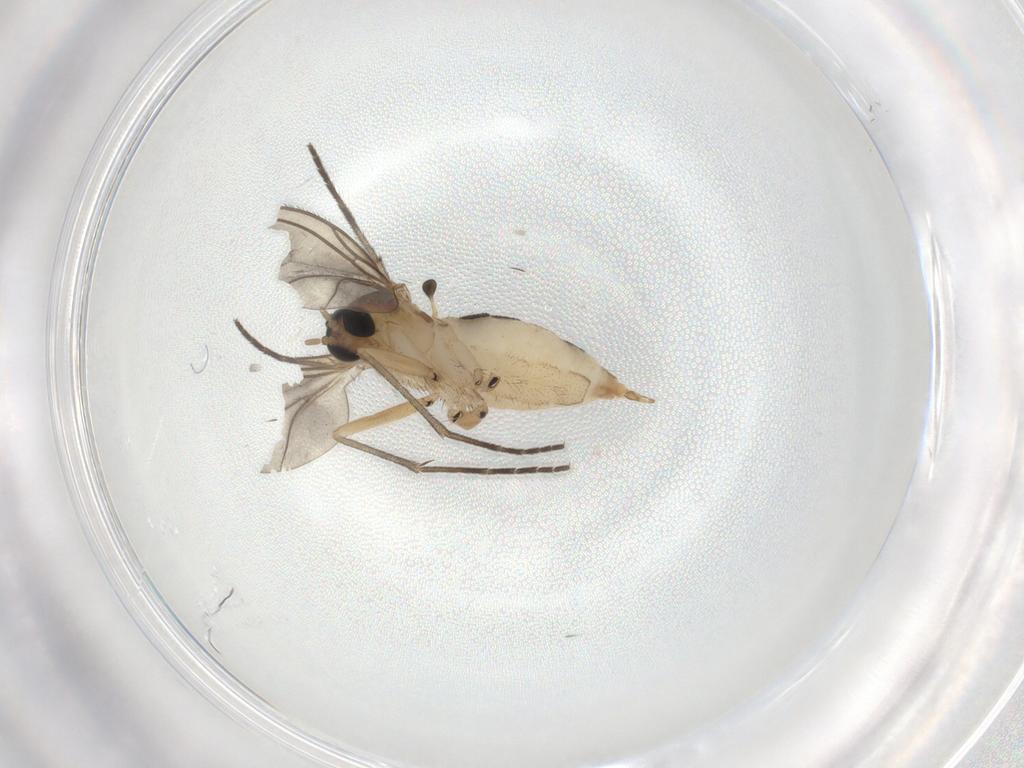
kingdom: Animalia
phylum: Arthropoda
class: Insecta
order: Diptera
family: Sciaridae
